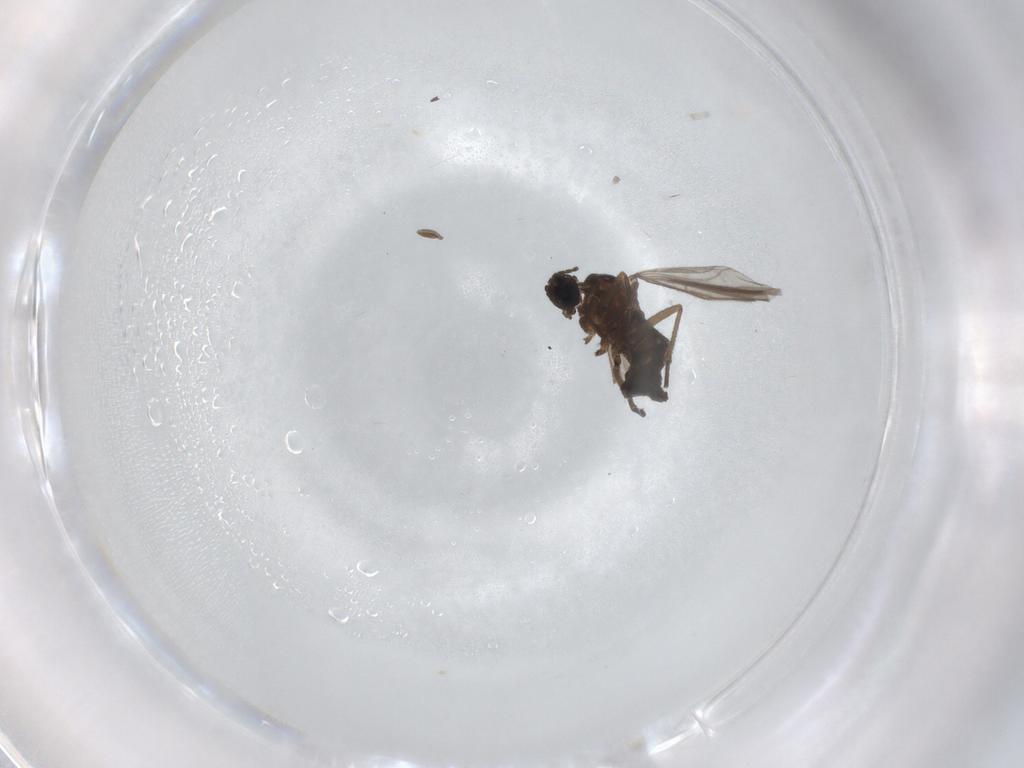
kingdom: Animalia
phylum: Arthropoda
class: Insecta
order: Diptera
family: Sciaridae
